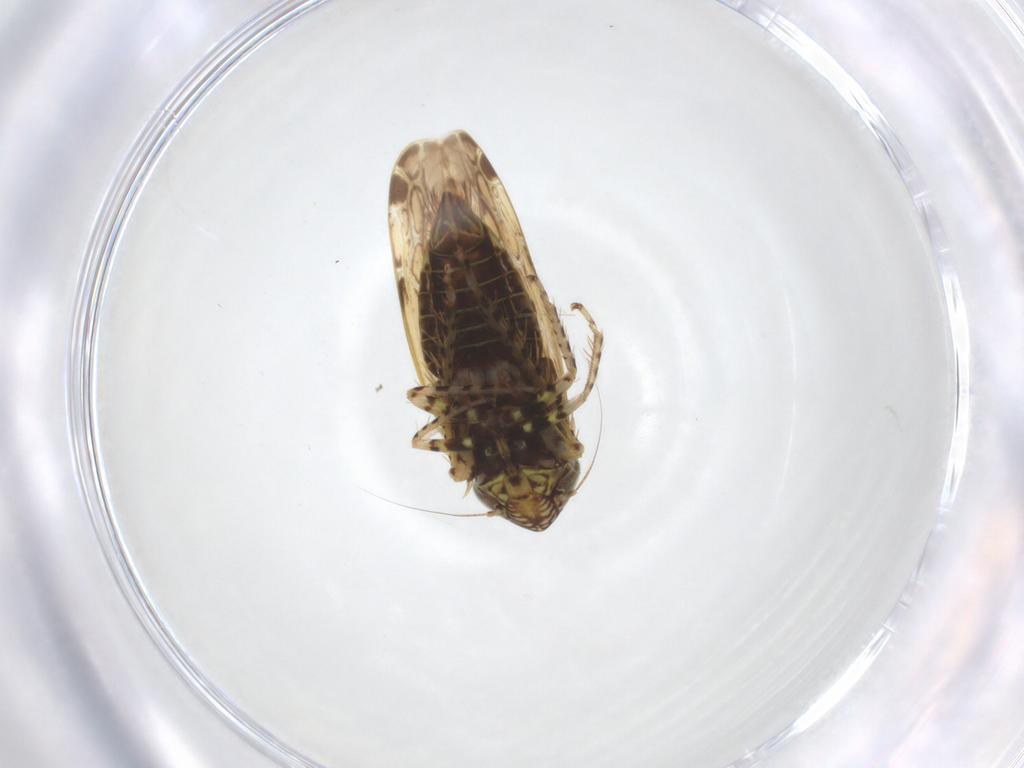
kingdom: Animalia
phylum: Arthropoda
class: Insecta
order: Hemiptera
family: Cicadellidae
